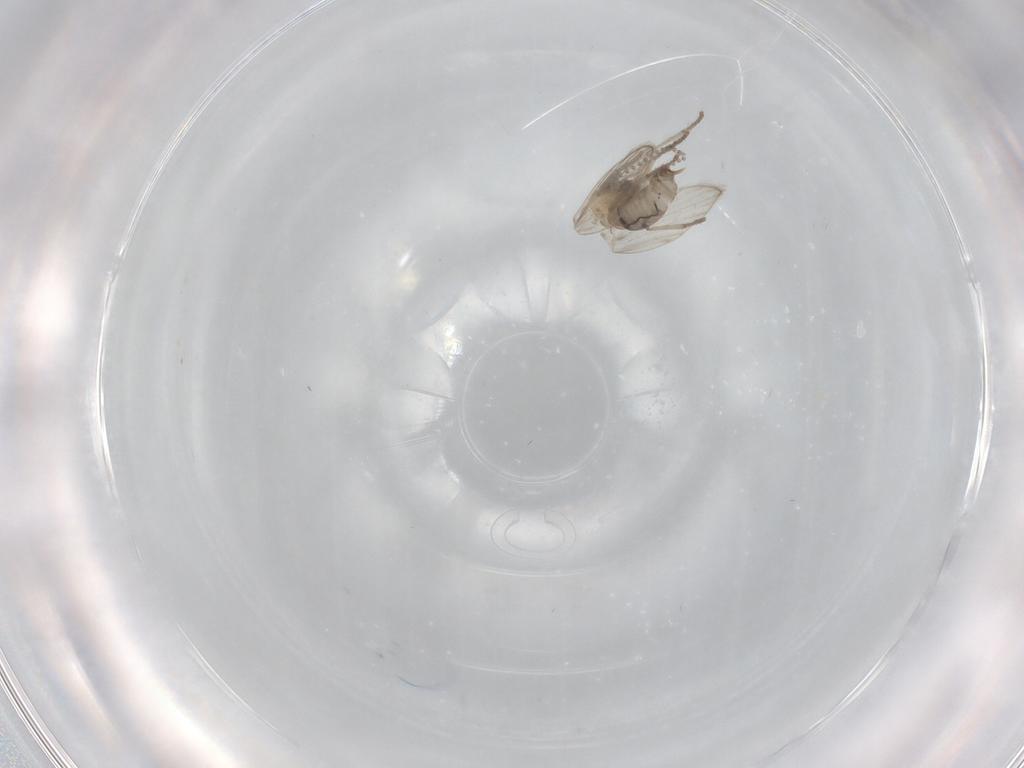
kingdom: Animalia
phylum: Arthropoda
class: Insecta
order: Diptera
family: Psychodidae
